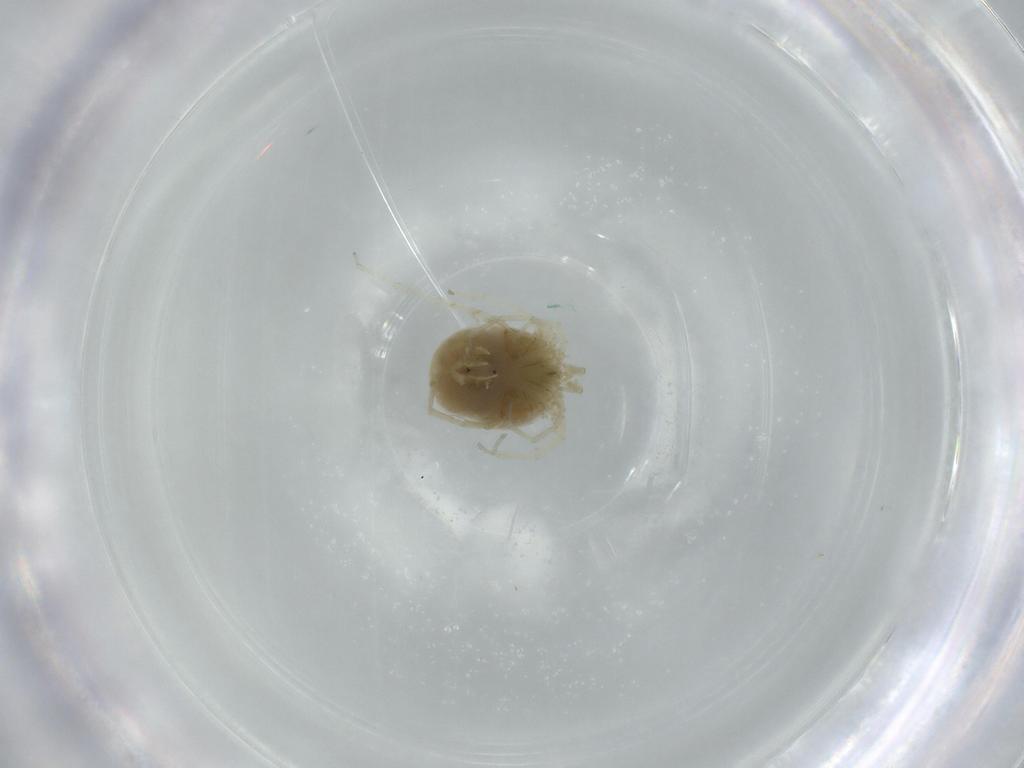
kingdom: Animalia
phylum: Arthropoda
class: Arachnida
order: Trombidiformes
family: Hygrobatidae
